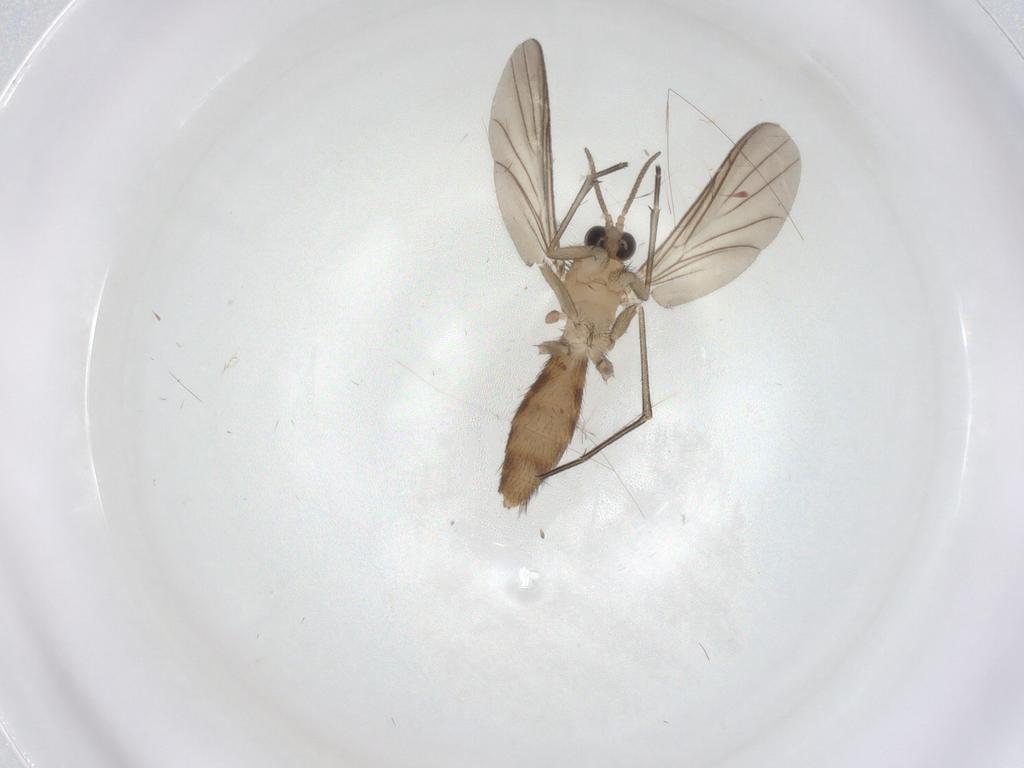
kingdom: Animalia
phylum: Arthropoda
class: Insecta
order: Diptera
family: Keroplatidae
